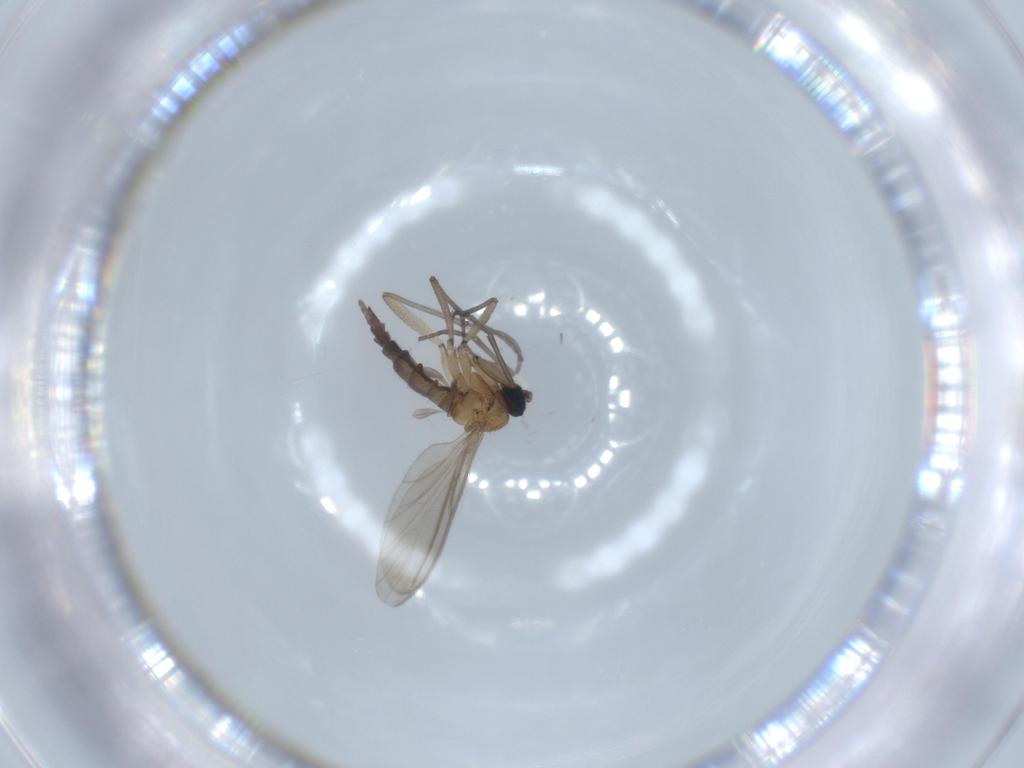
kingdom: Animalia
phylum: Arthropoda
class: Insecta
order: Diptera
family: Sciaridae
